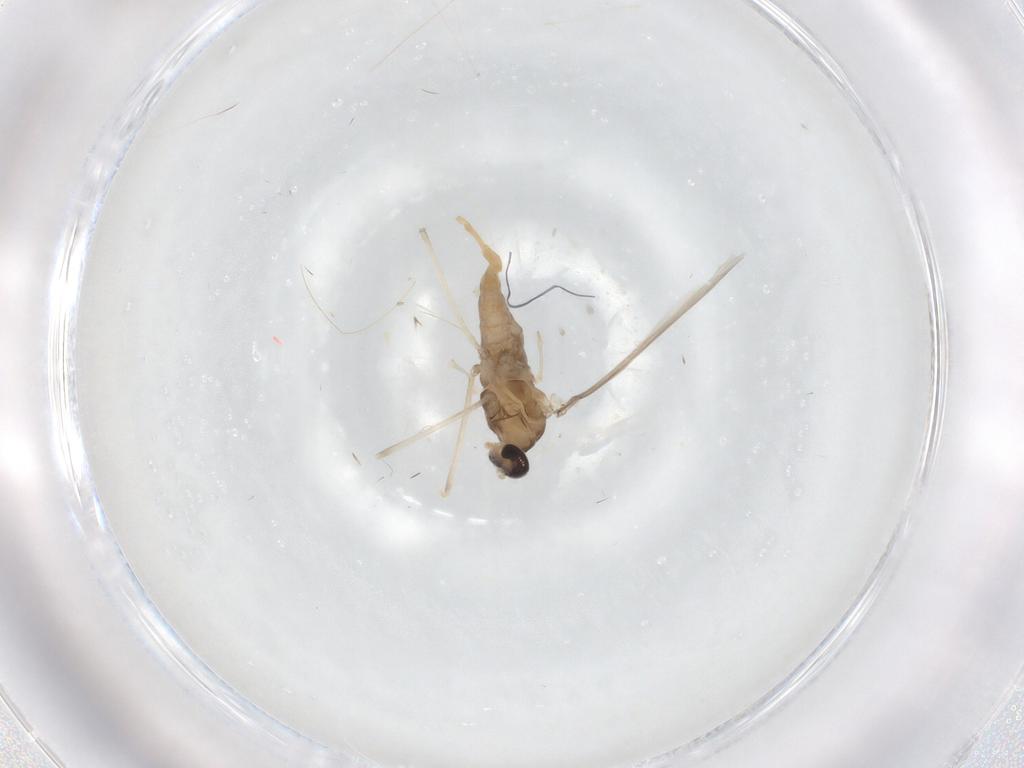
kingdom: Animalia
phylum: Arthropoda
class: Insecta
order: Diptera
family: Cecidomyiidae
